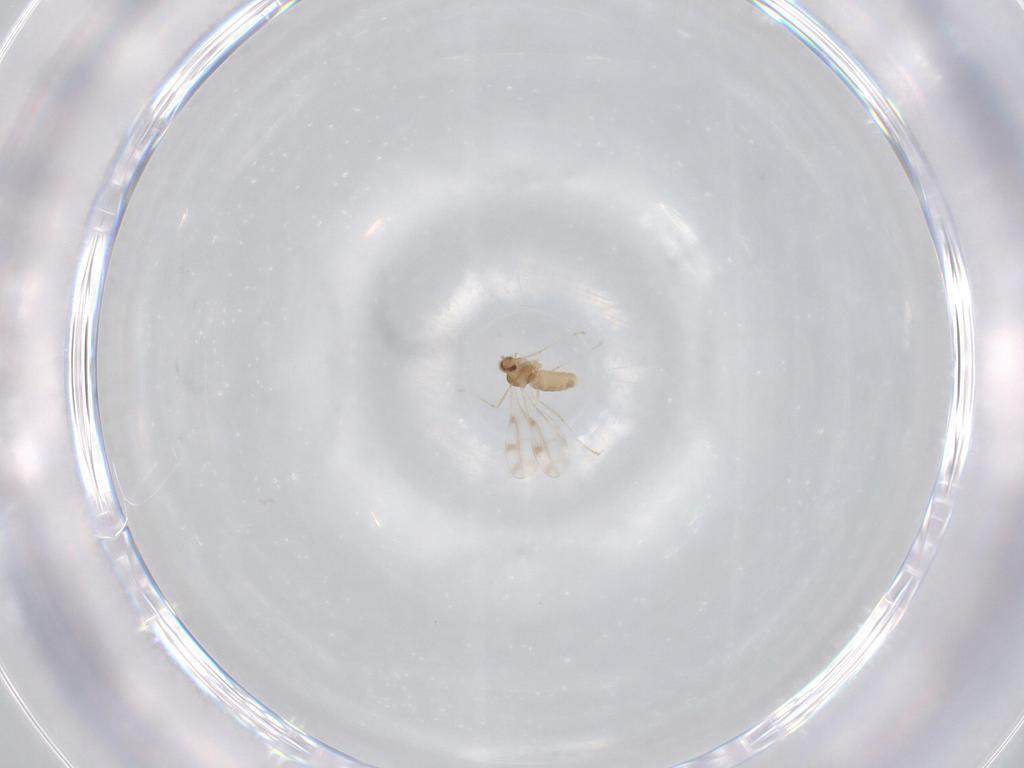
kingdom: Animalia
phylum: Arthropoda
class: Insecta
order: Diptera
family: Cecidomyiidae
